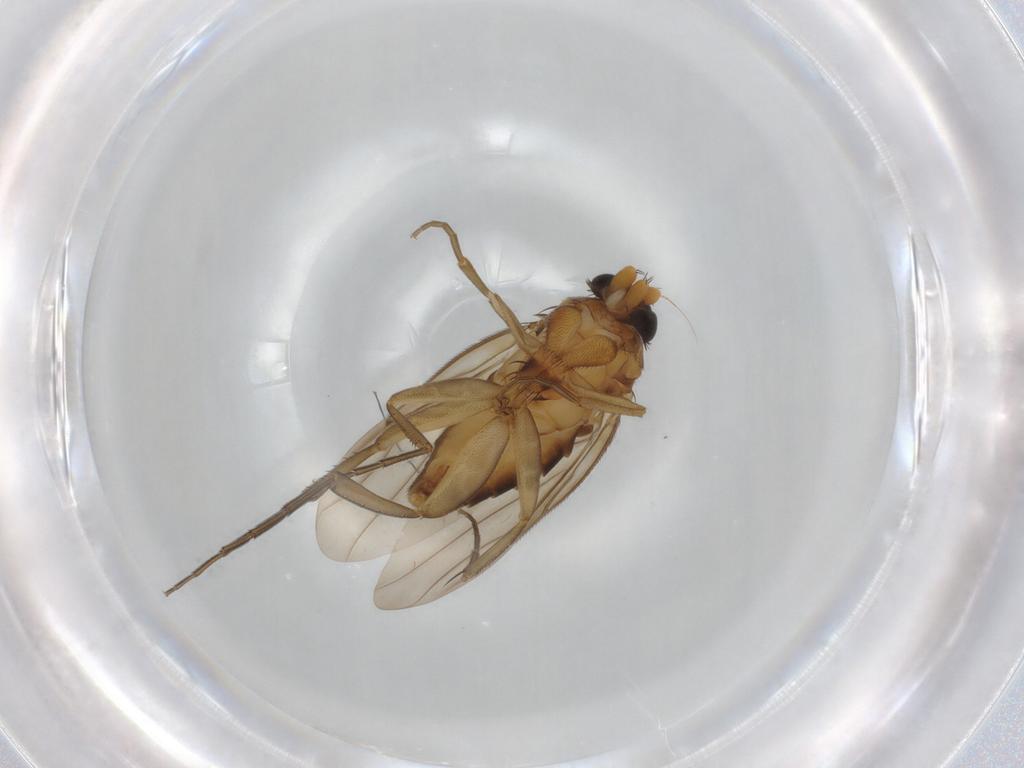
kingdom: Animalia
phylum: Arthropoda
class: Insecta
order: Diptera
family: Sciaridae
